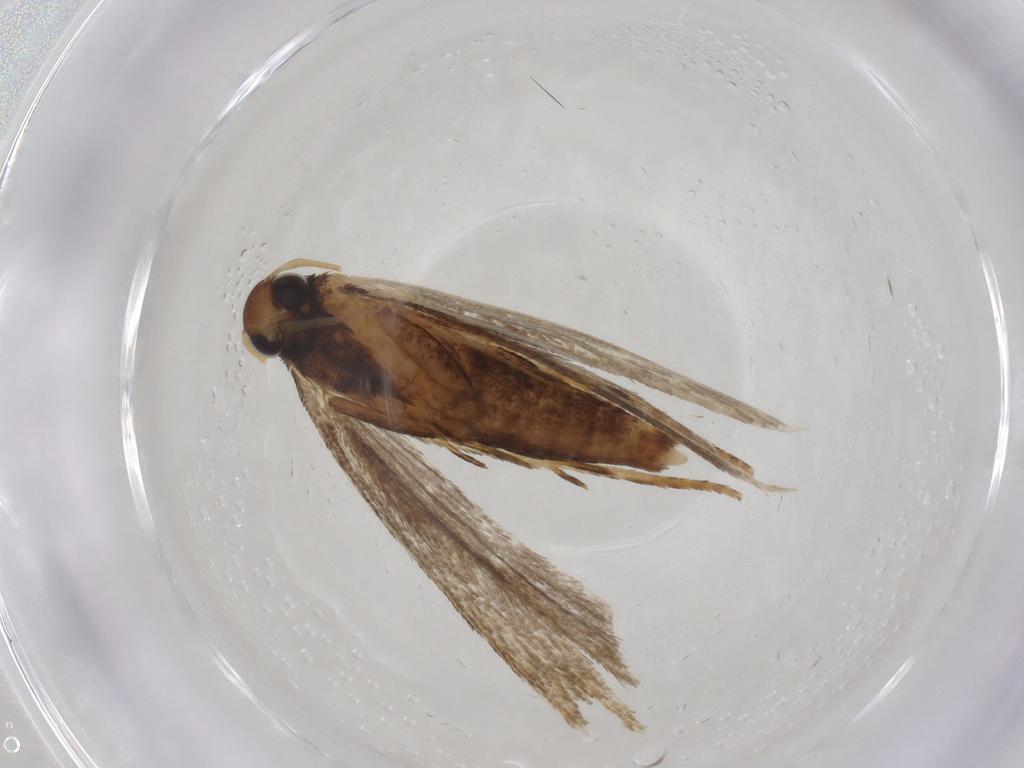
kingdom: Animalia
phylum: Arthropoda
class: Insecta
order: Lepidoptera
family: Gelechiidae
